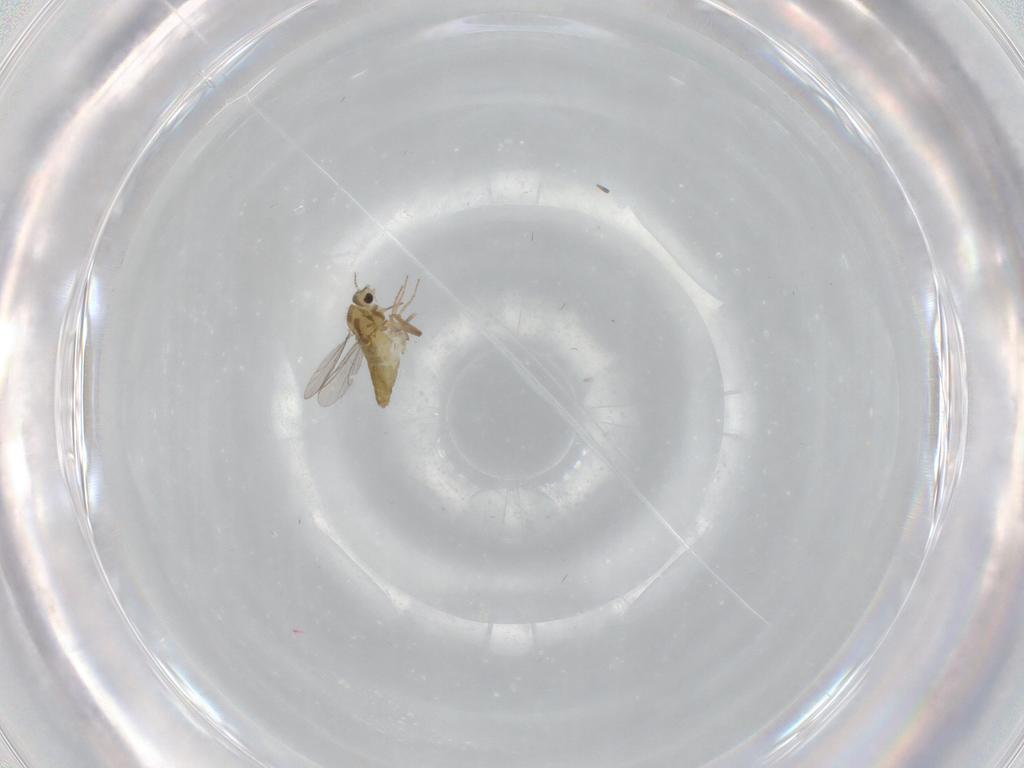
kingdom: Animalia
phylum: Arthropoda
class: Insecta
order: Diptera
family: Chironomidae
